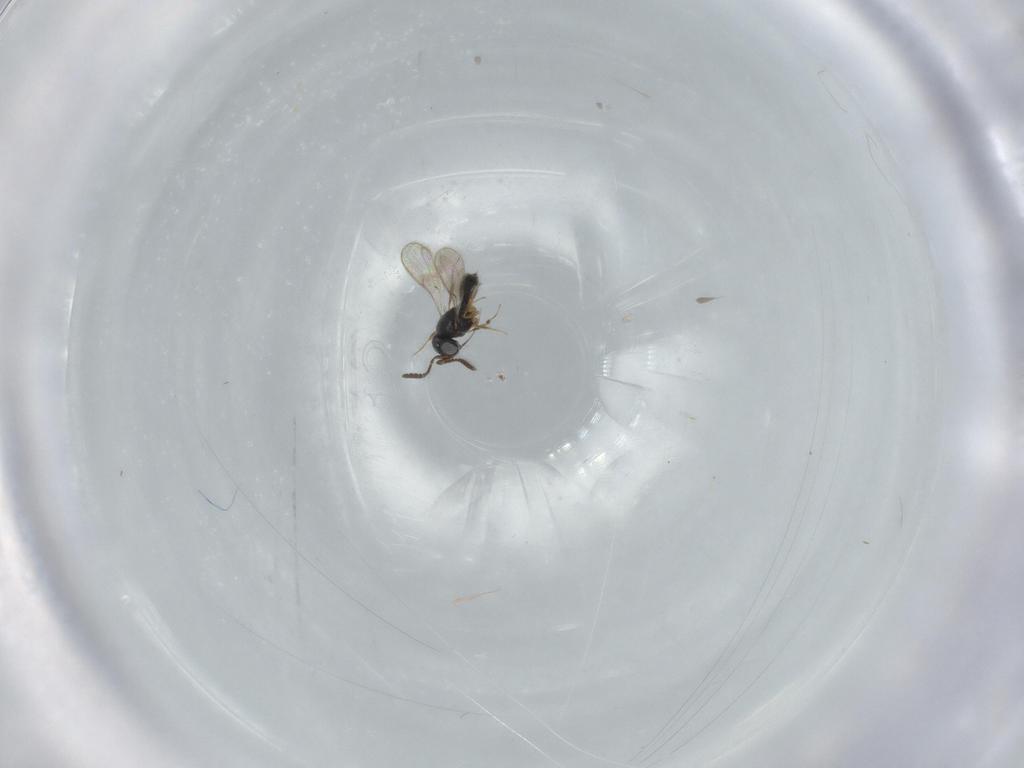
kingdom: Animalia
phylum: Arthropoda
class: Insecta
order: Hymenoptera
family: Scelionidae
